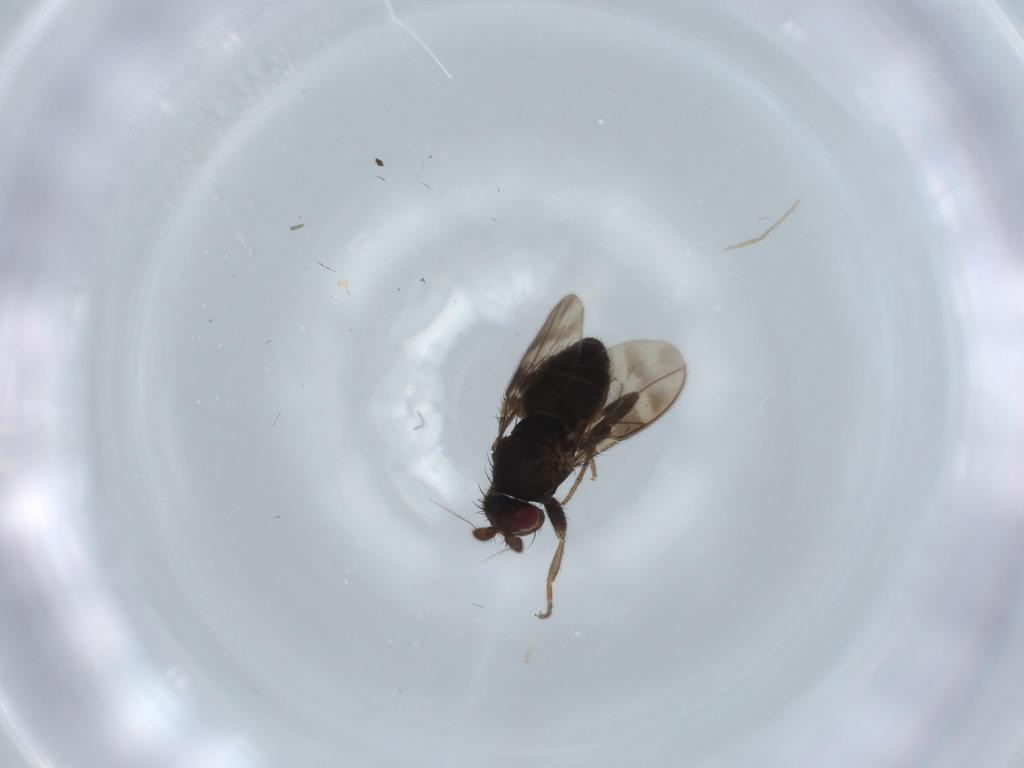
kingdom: Animalia
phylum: Arthropoda
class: Insecta
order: Diptera
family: Sphaeroceridae
